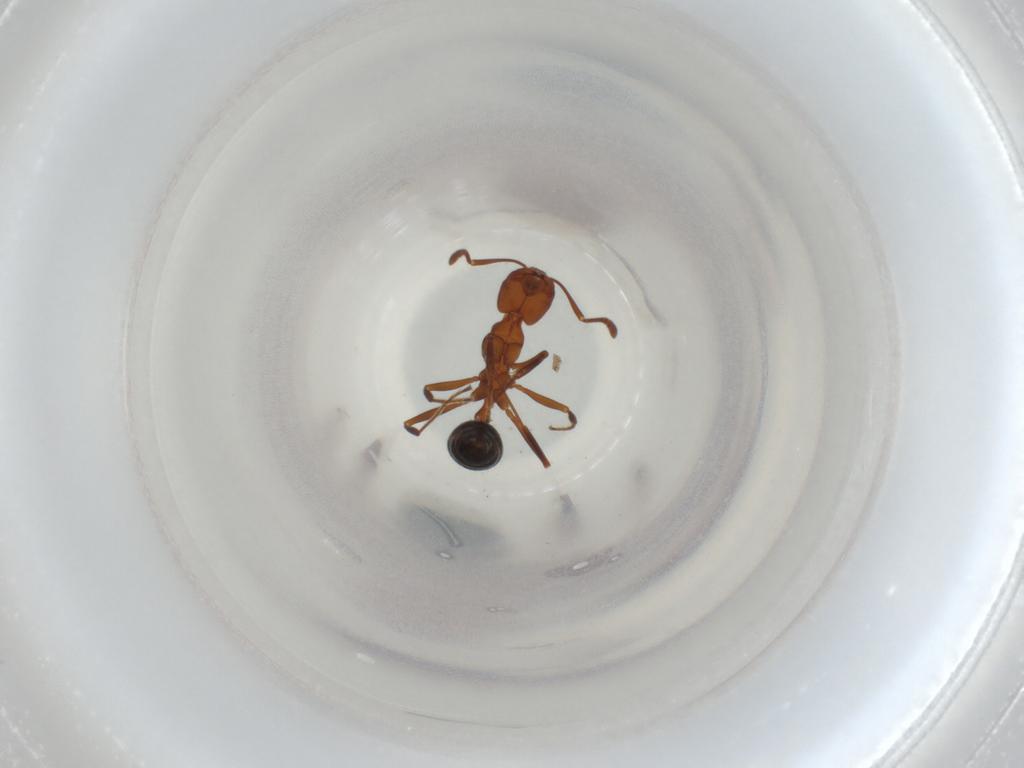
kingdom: Animalia
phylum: Arthropoda
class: Insecta
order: Hymenoptera
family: Formicidae
